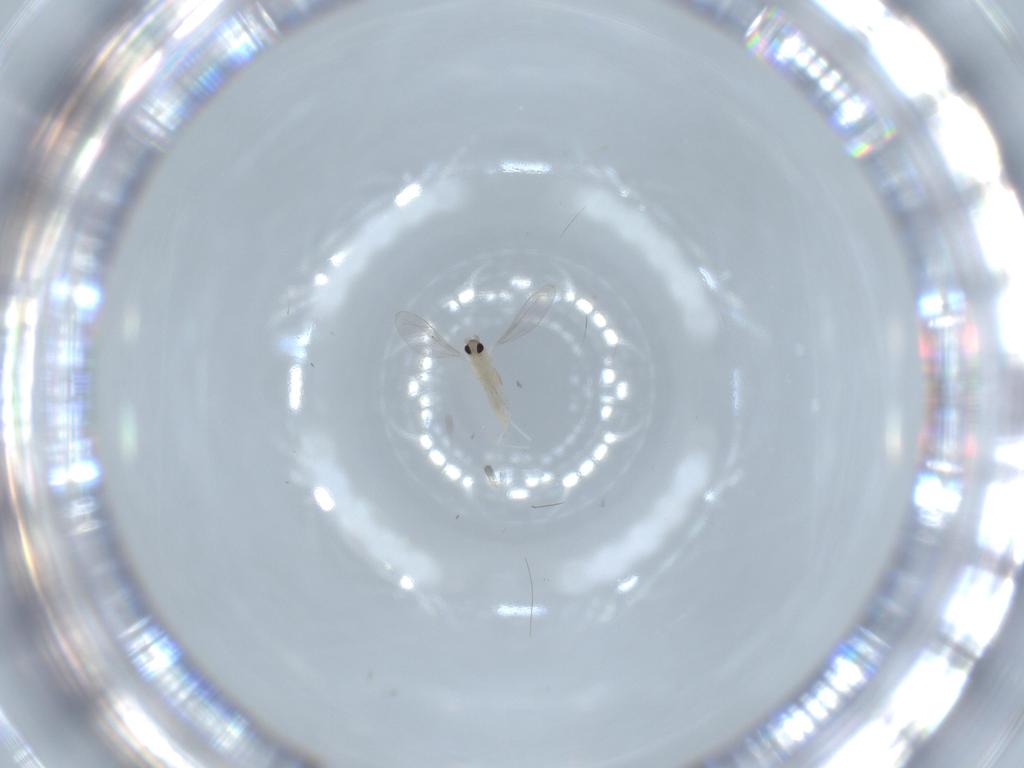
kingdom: Animalia
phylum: Arthropoda
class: Insecta
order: Diptera
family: Cecidomyiidae
